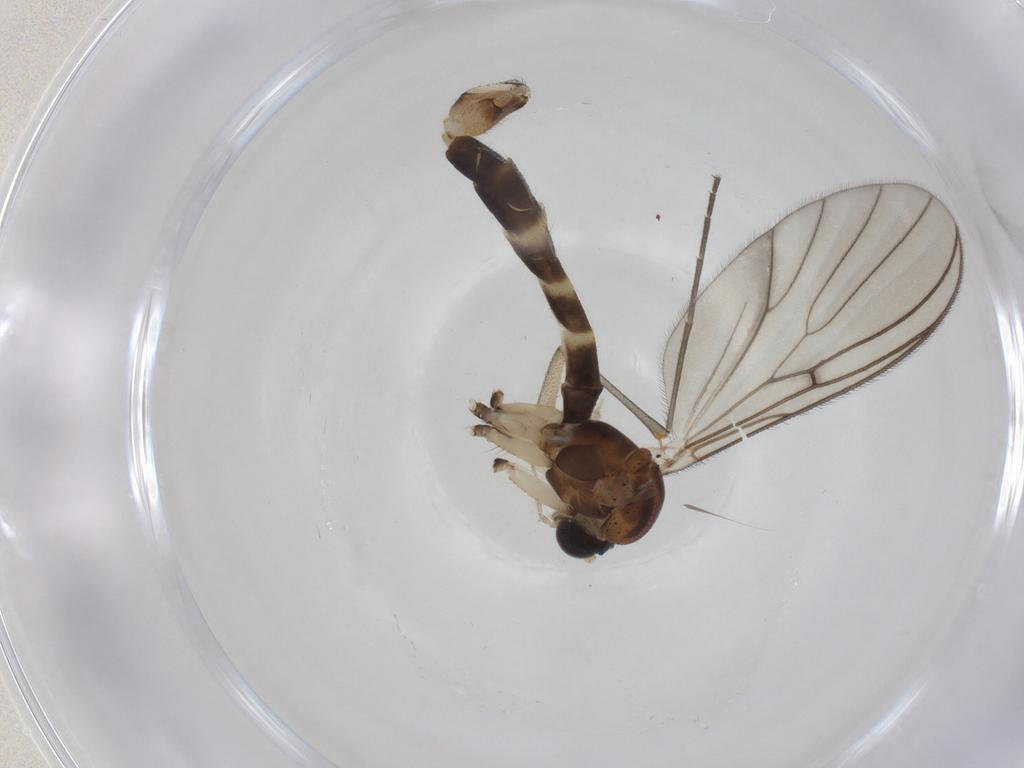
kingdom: Animalia
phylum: Arthropoda
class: Insecta
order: Diptera
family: Mycetophilidae
